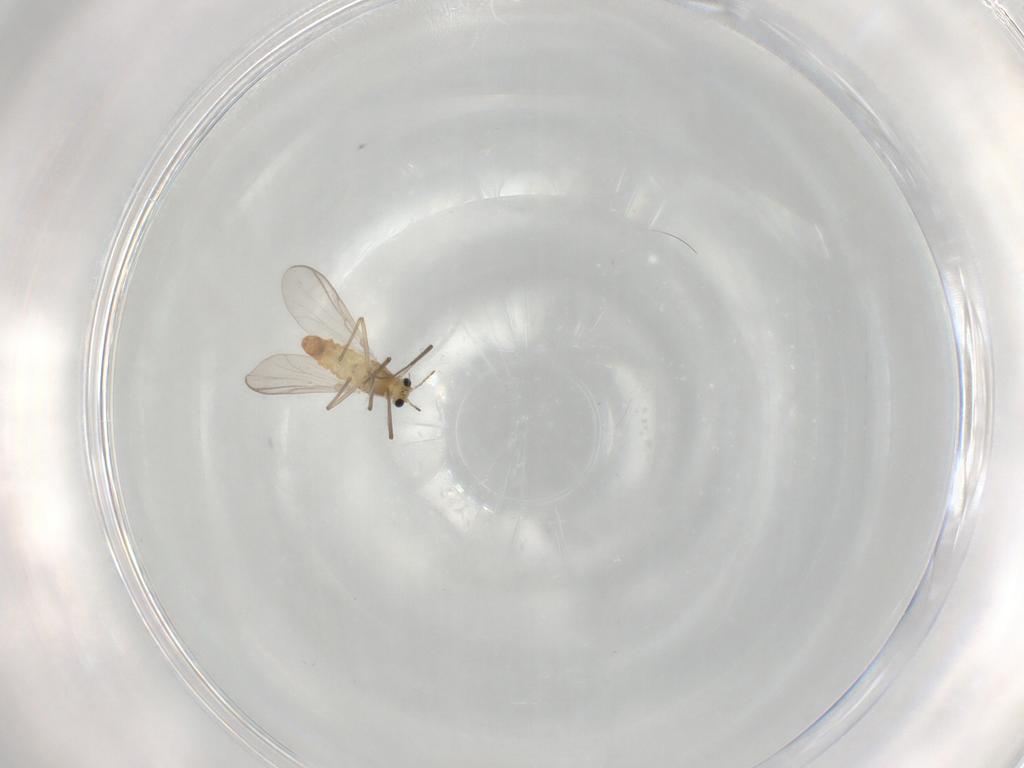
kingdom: Animalia
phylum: Arthropoda
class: Insecta
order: Diptera
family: Chironomidae
